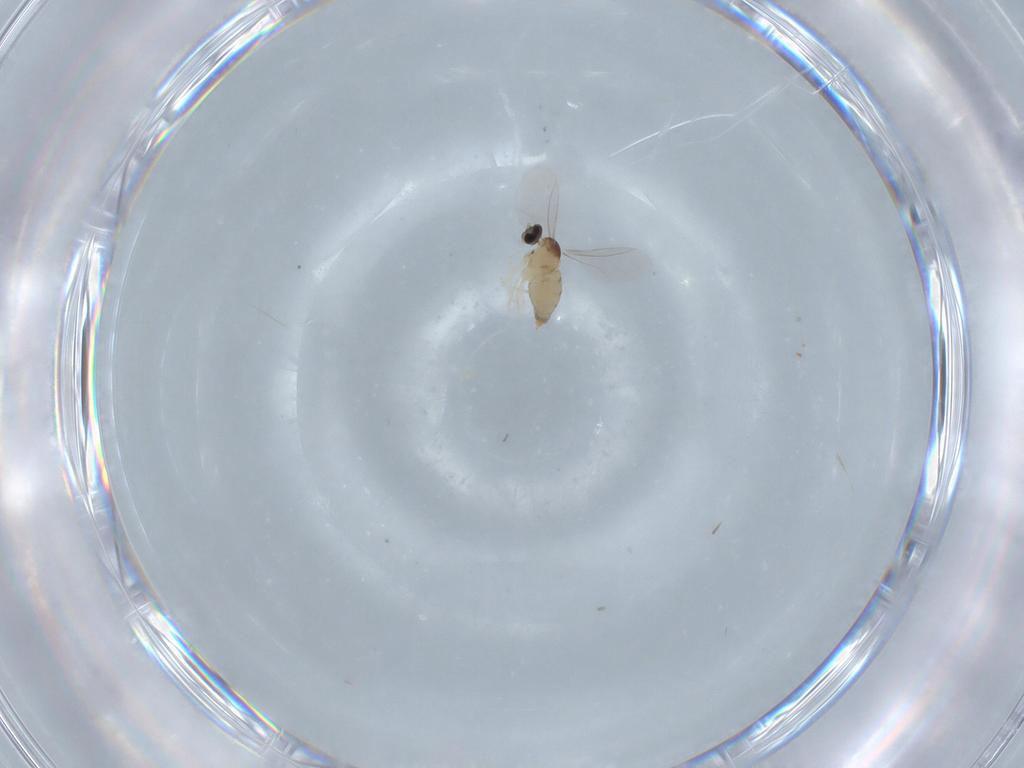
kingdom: Animalia
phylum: Arthropoda
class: Insecta
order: Diptera
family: Cecidomyiidae
